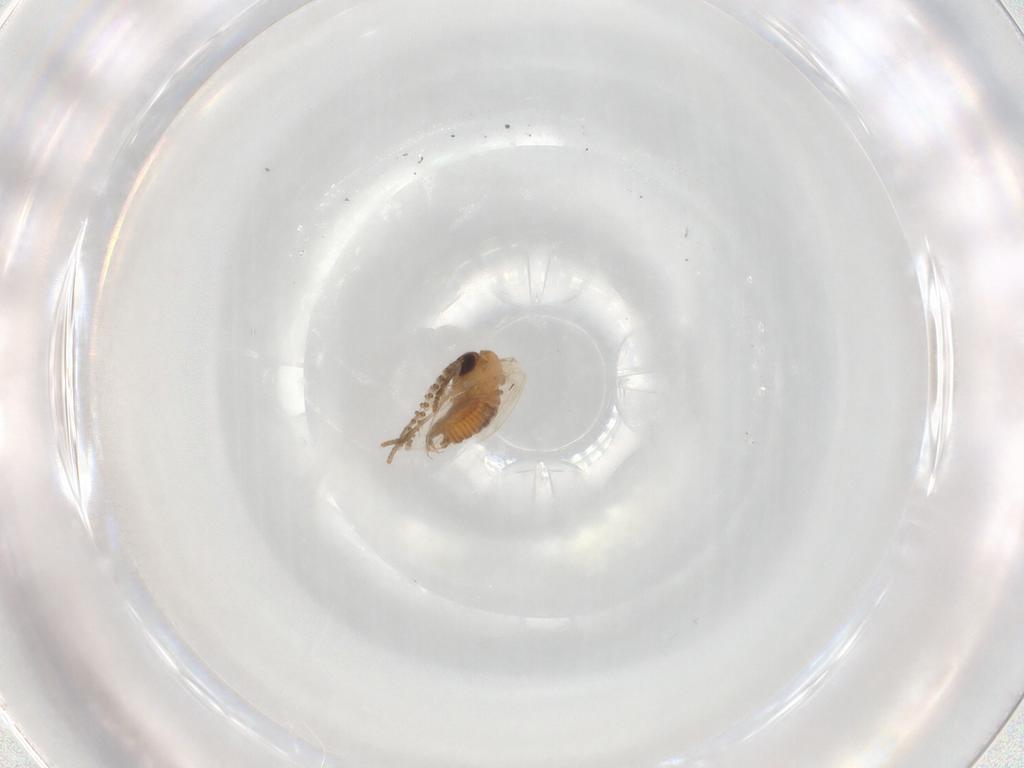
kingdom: Animalia
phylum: Arthropoda
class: Insecta
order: Diptera
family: Psychodidae
